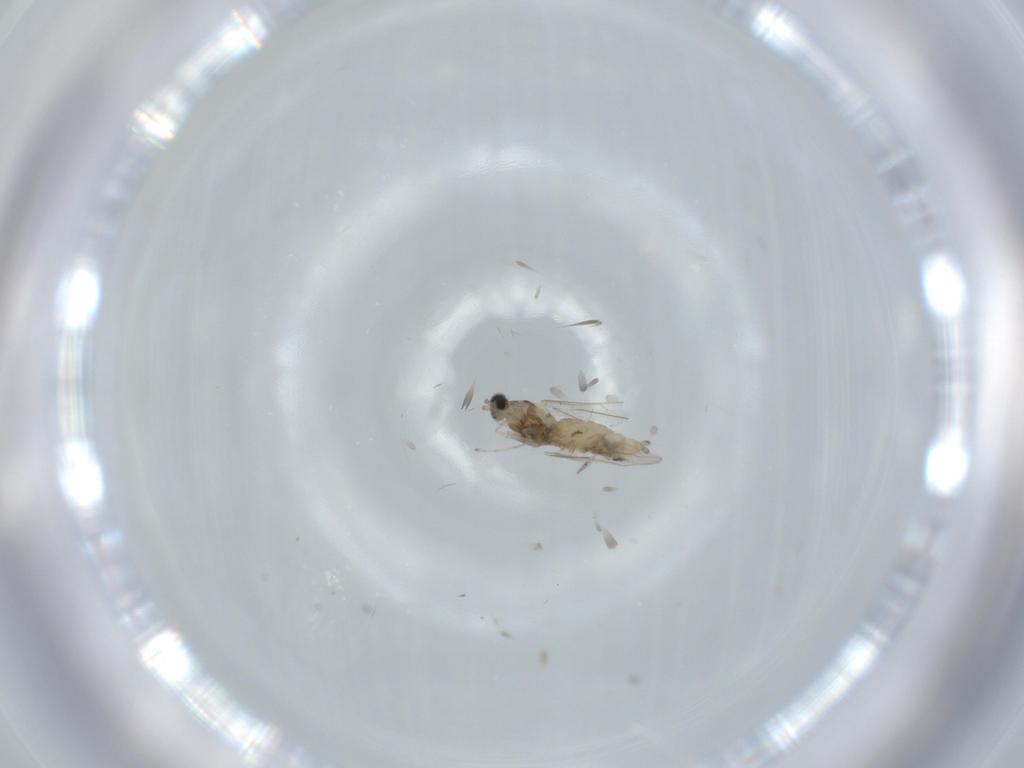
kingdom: Animalia
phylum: Arthropoda
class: Insecta
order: Diptera
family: Cecidomyiidae
